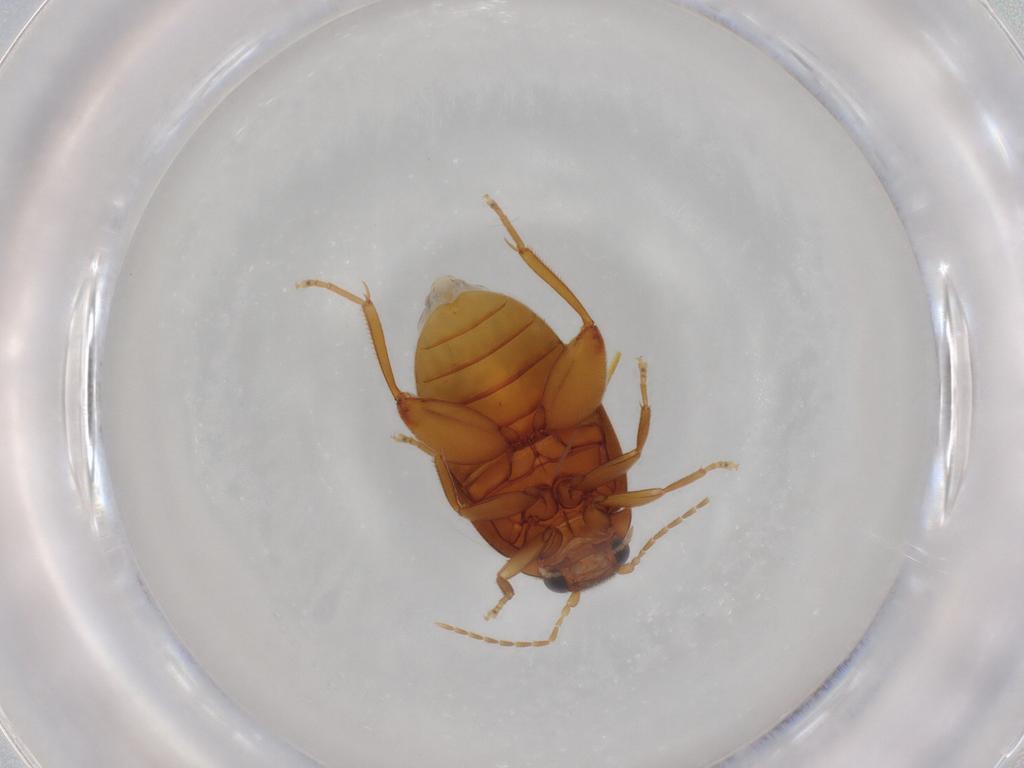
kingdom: Animalia
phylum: Arthropoda
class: Insecta
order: Coleoptera
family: Scirtidae
